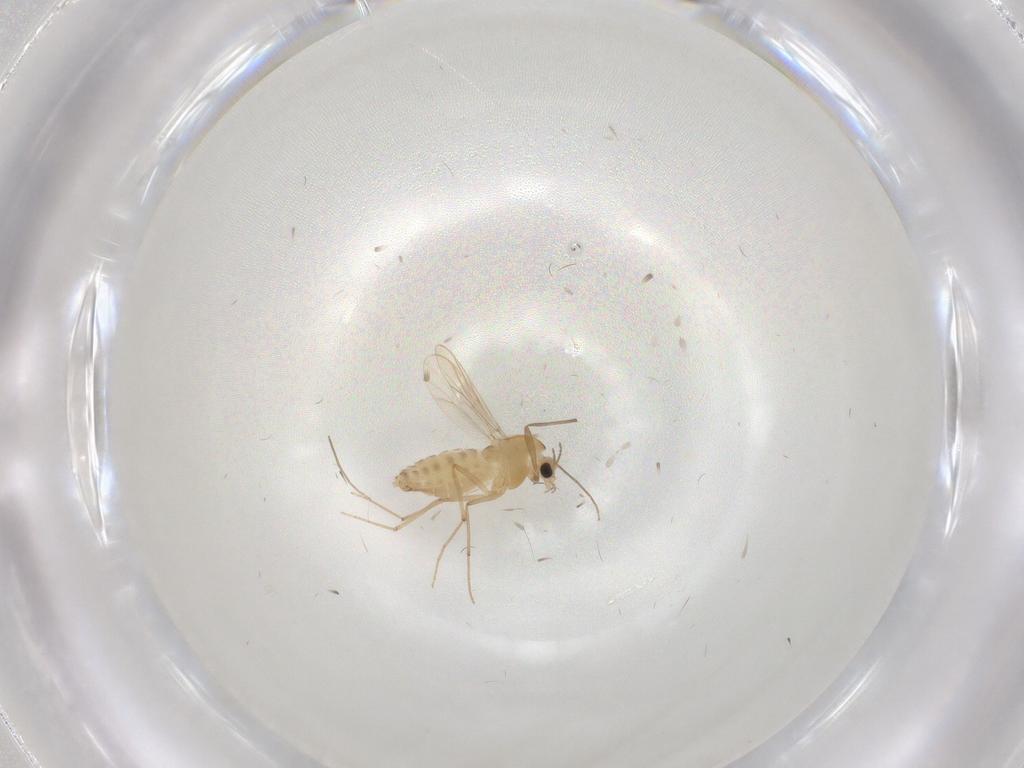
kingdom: Animalia
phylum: Arthropoda
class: Insecta
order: Diptera
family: Chironomidae
